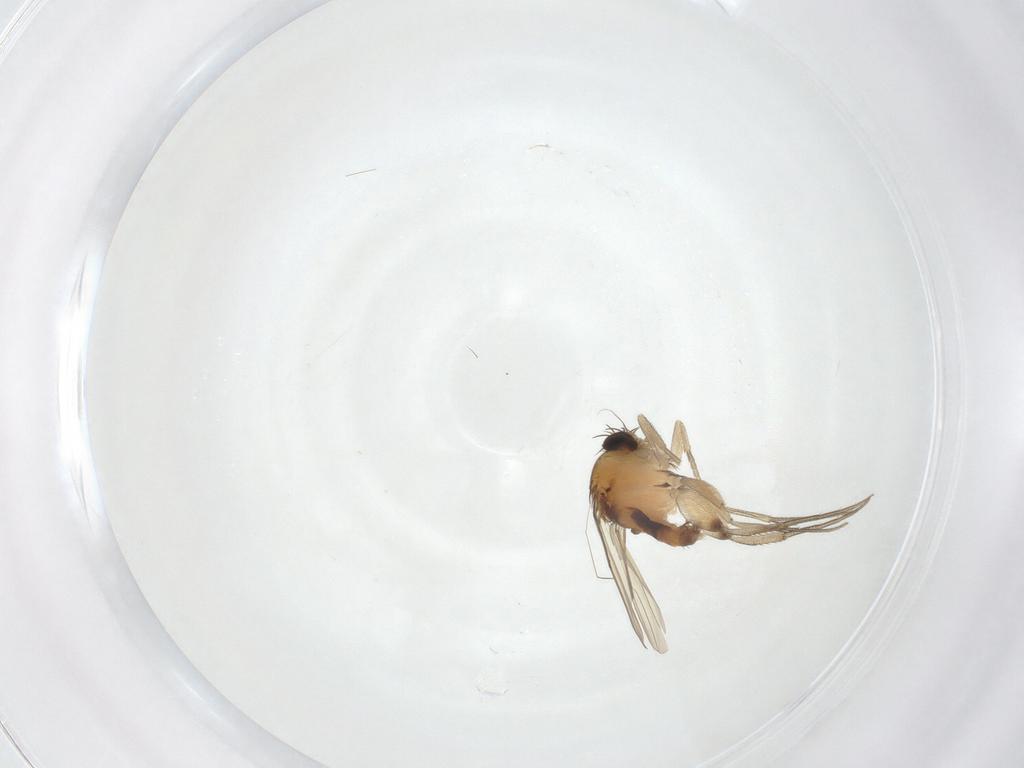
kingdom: Animalia
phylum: Arthropoda
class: Insecta
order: Diptera
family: Phoridae
